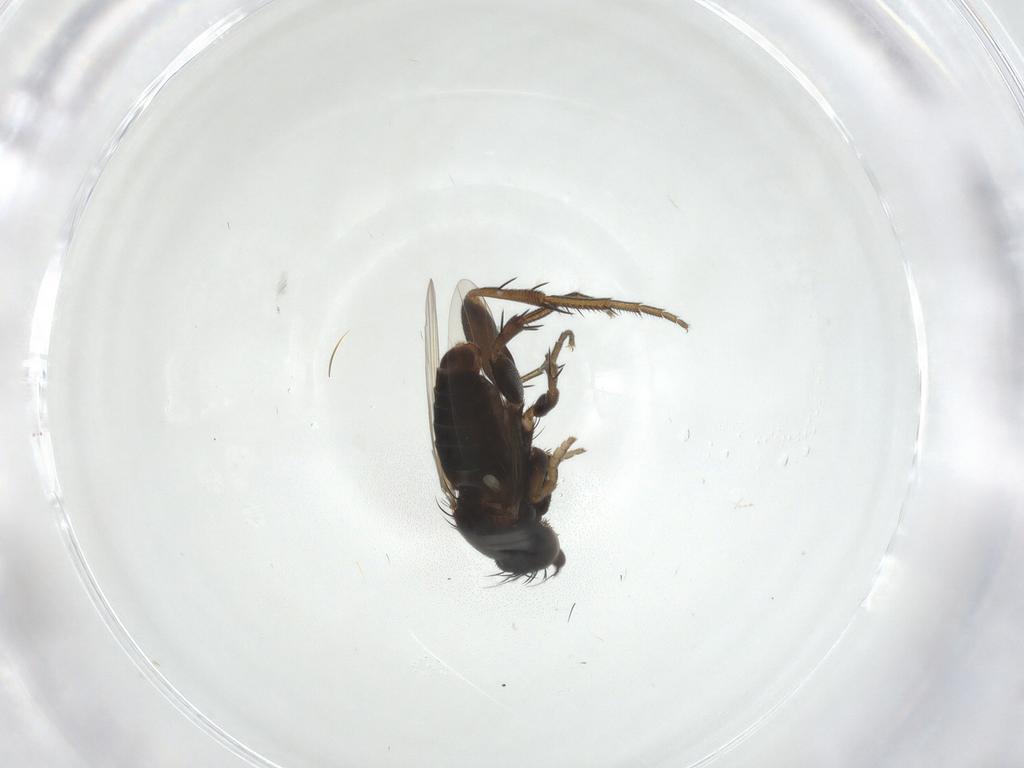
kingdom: Animalia
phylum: Arthropoda
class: Insecta
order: Diptera
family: Phoridae
